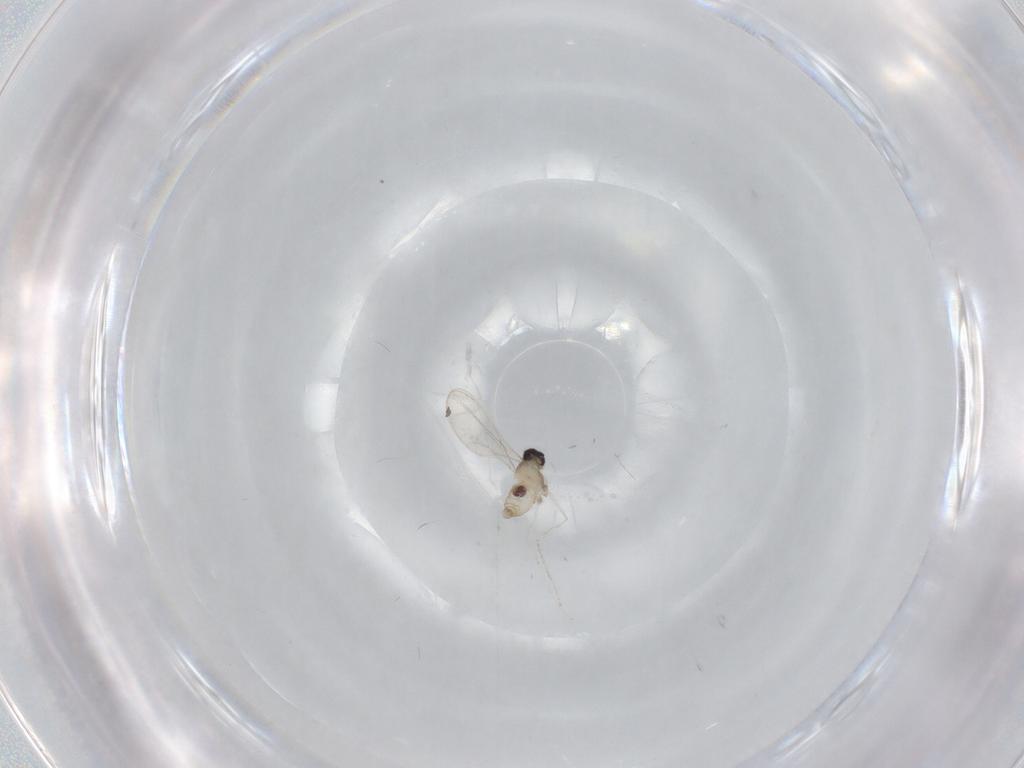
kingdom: Animalia
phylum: Arthropoda
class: Insecta
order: Diptera
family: Cecidomyiidae
